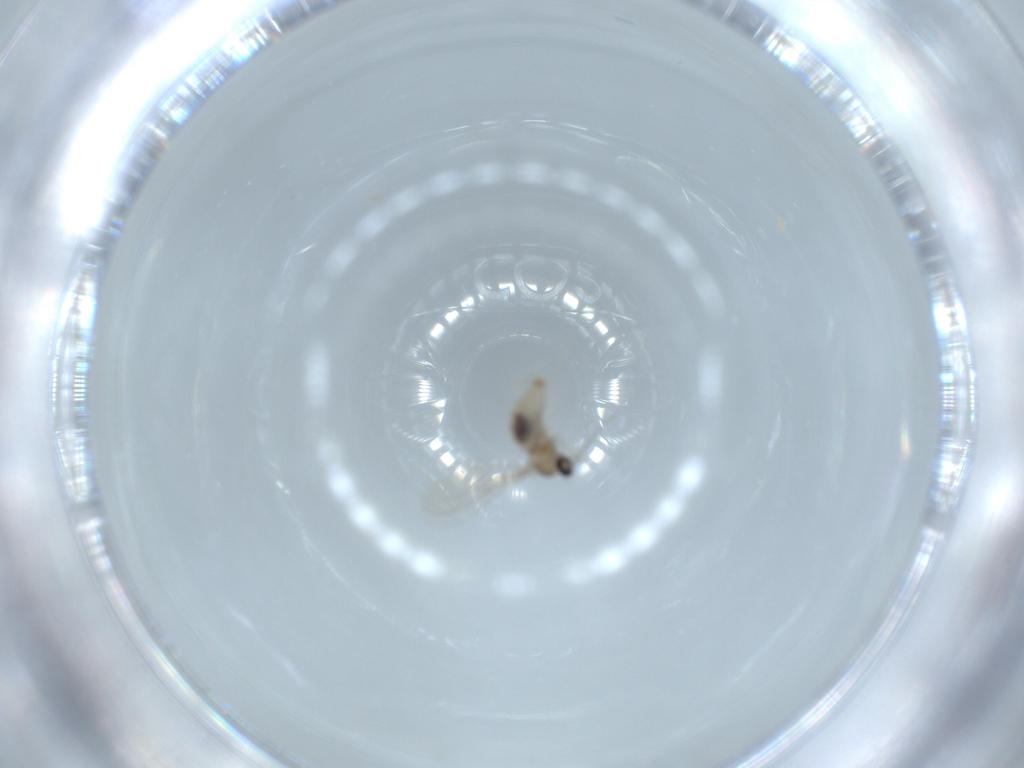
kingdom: Animalia
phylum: Arthropoda
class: Insecta
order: Diptera
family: Cecidomyiidae
